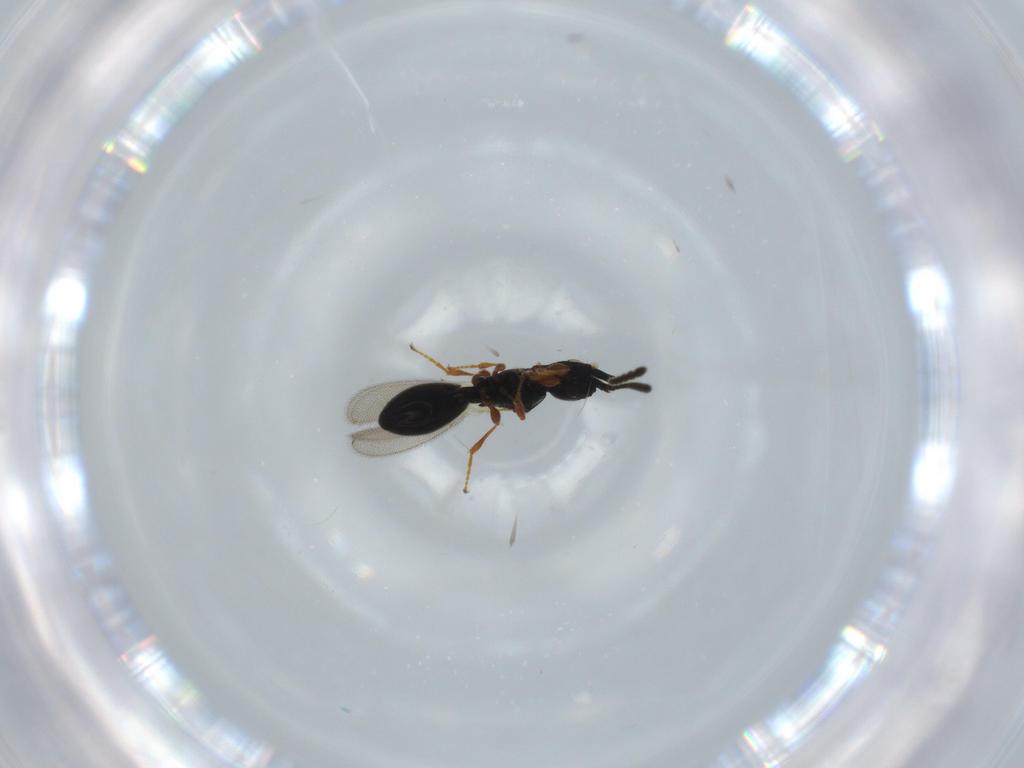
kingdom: Animalia
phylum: Arthropoda
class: Insecta
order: Hymenoptera
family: Diapriidae
